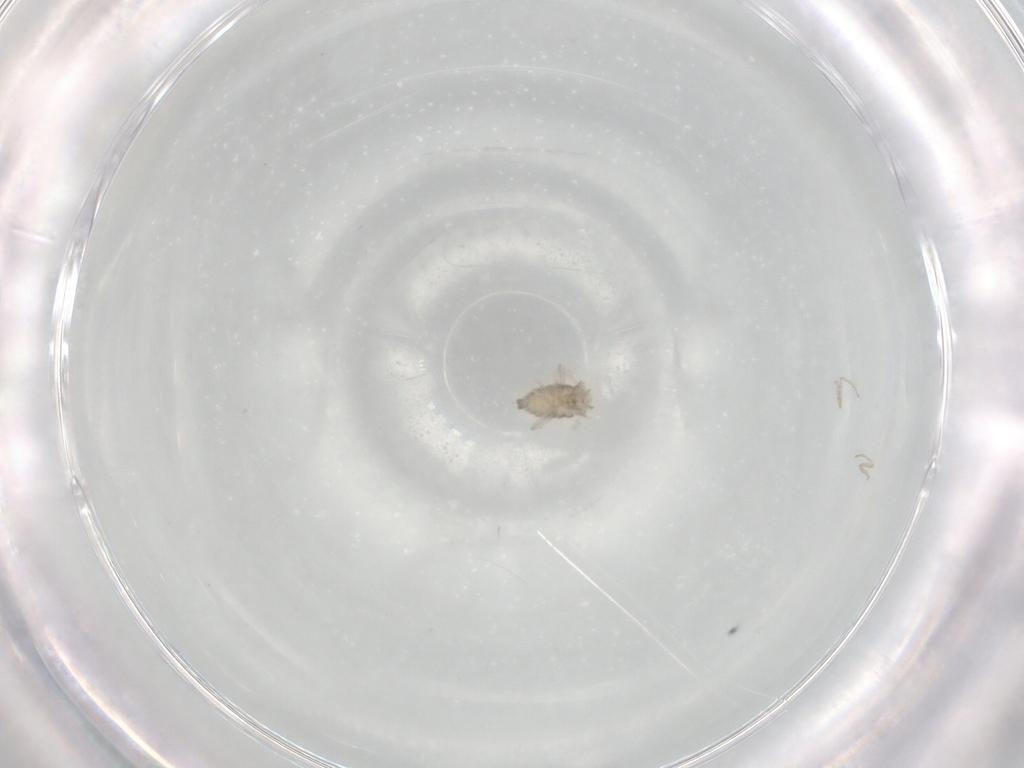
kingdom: Animalia
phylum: Arthropoda
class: Insecta
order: Diptera
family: Cecidomyiidae
